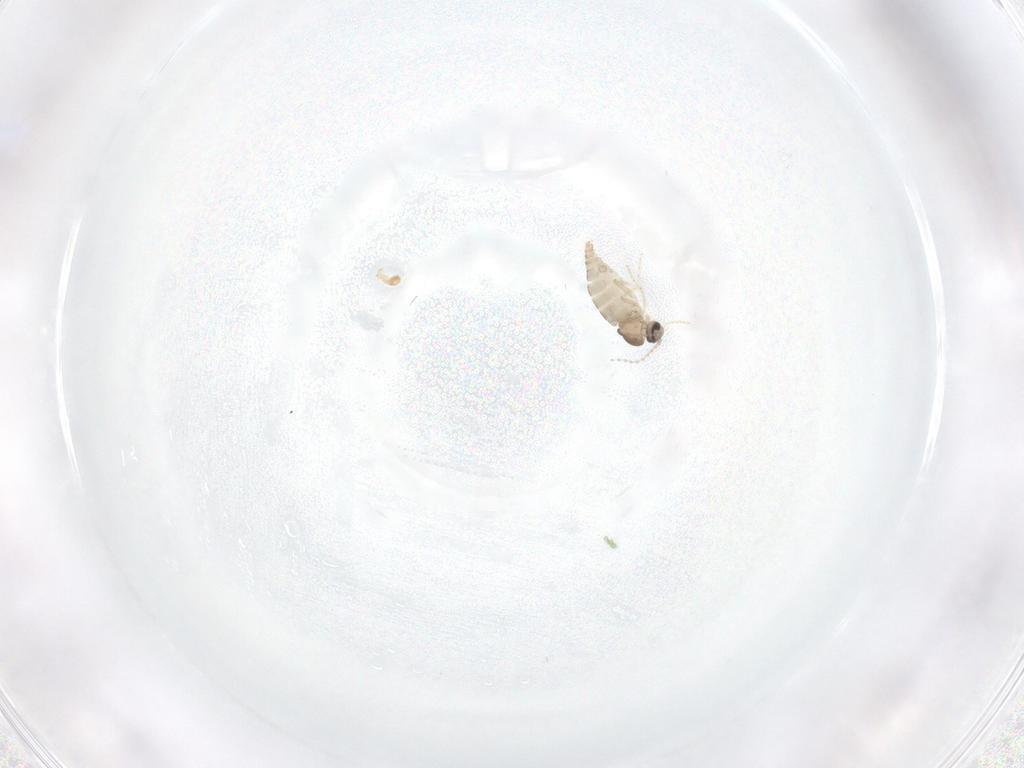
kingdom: Animalia
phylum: Arthropoda
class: Insecta
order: Diptera
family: Cecidomyiidae
